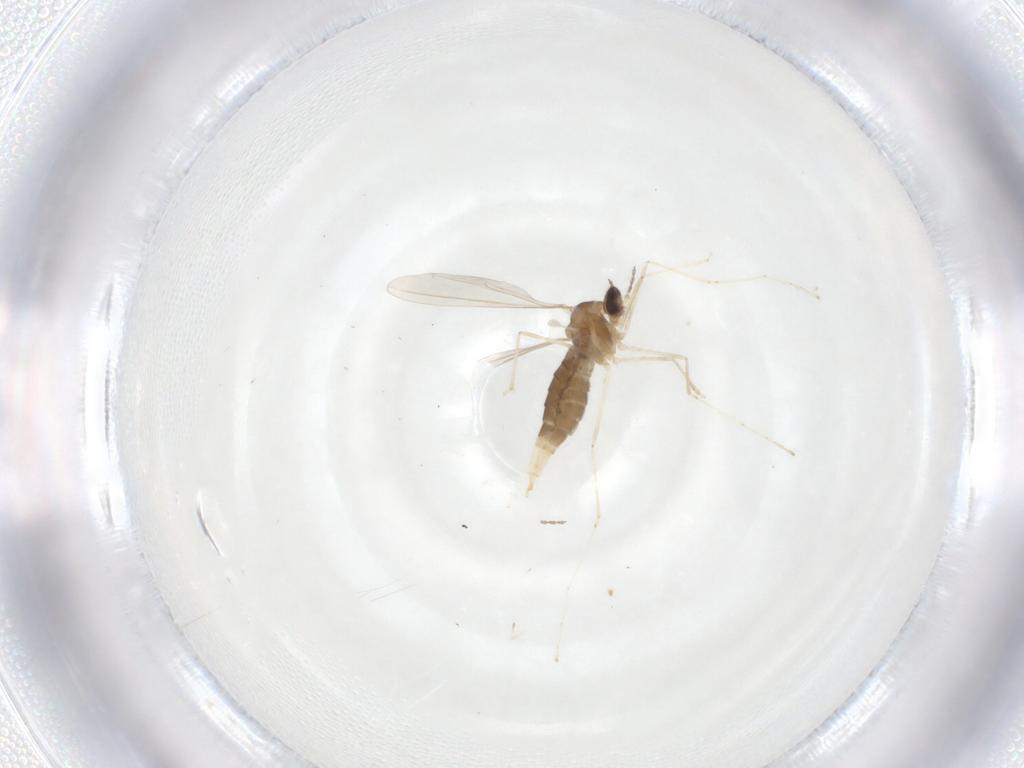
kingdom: Animalia
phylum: Arthropoda
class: Insecta
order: Diptera
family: Cecidomyiidae
